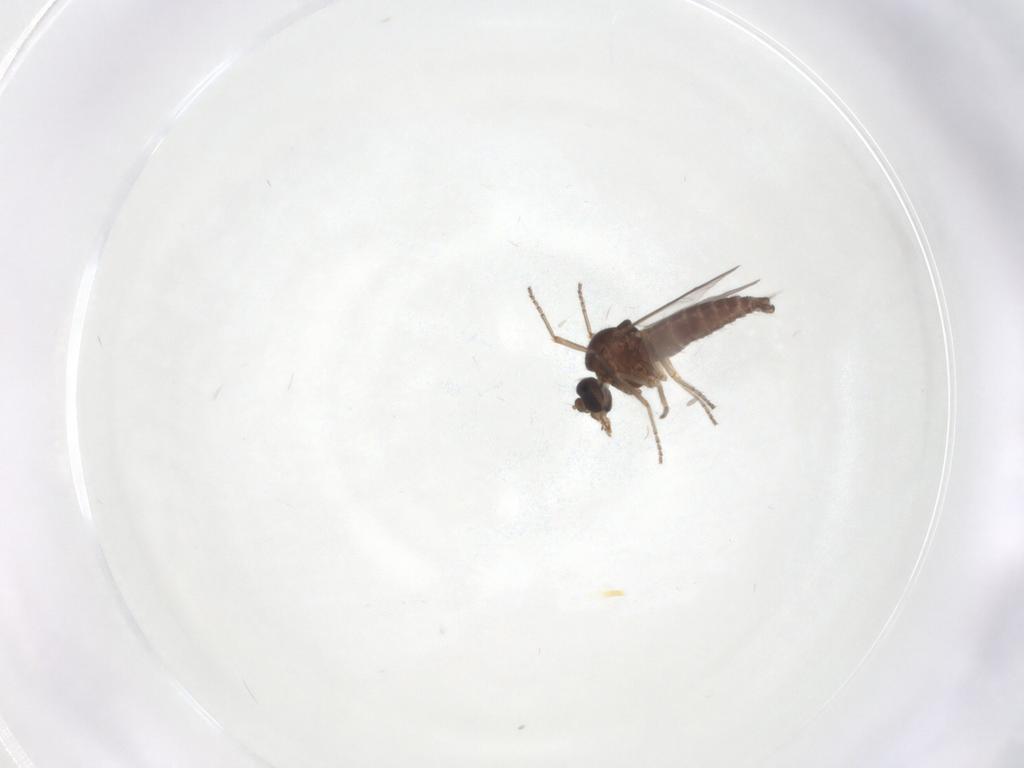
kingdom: Animalia
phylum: Arthropoda
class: Insecta
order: Diptera
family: Ceratopogonidae
